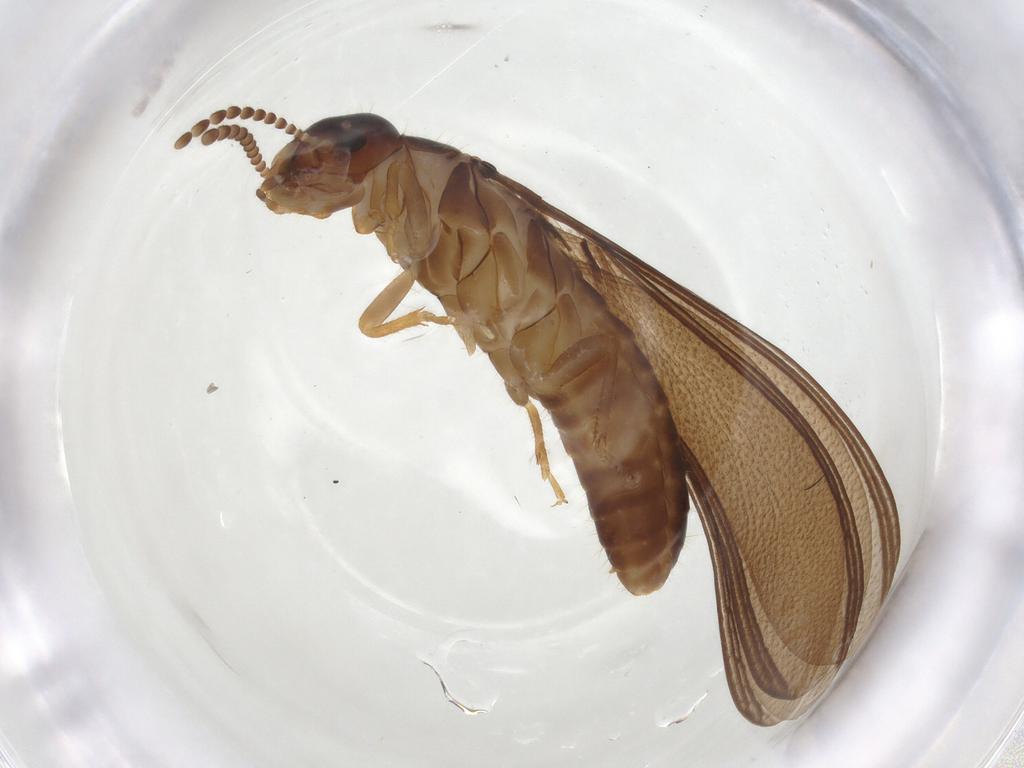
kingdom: Animalia
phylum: Arthropoda
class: Insecta
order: Blattodea
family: Kalotermitidae
